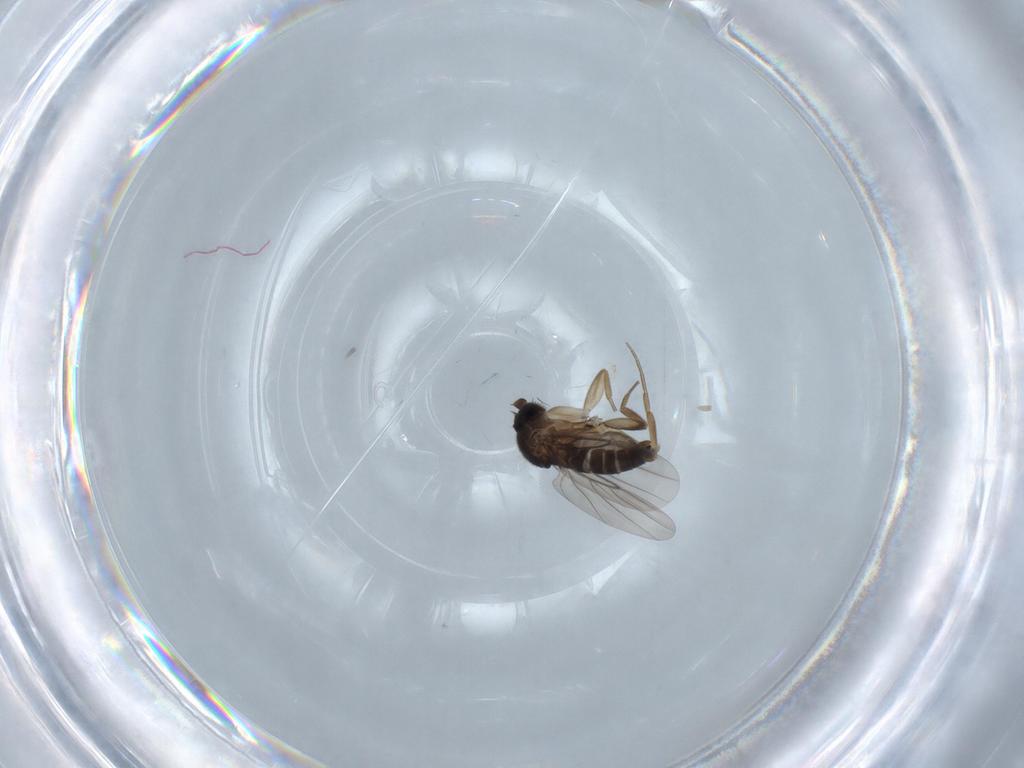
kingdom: Animalia
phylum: Arthropoda
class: Insecta
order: Diptera
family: Phoridae
